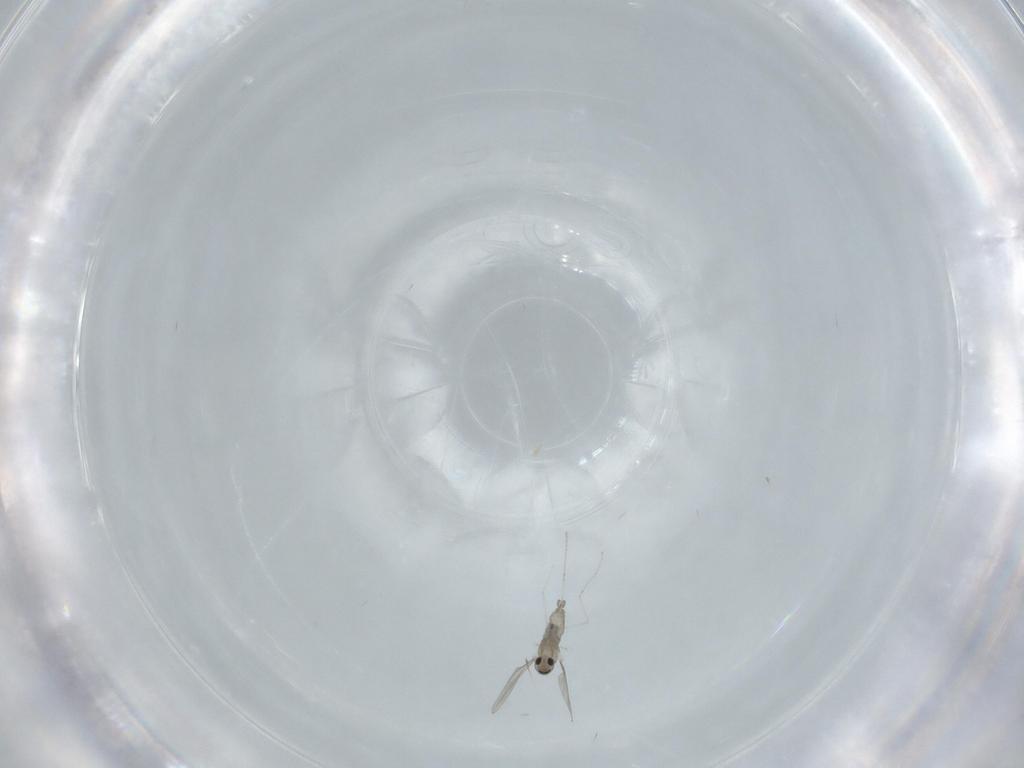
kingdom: Animalia
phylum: Arthropoda
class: Insecta
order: Diptera
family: Cecidomyiidae
